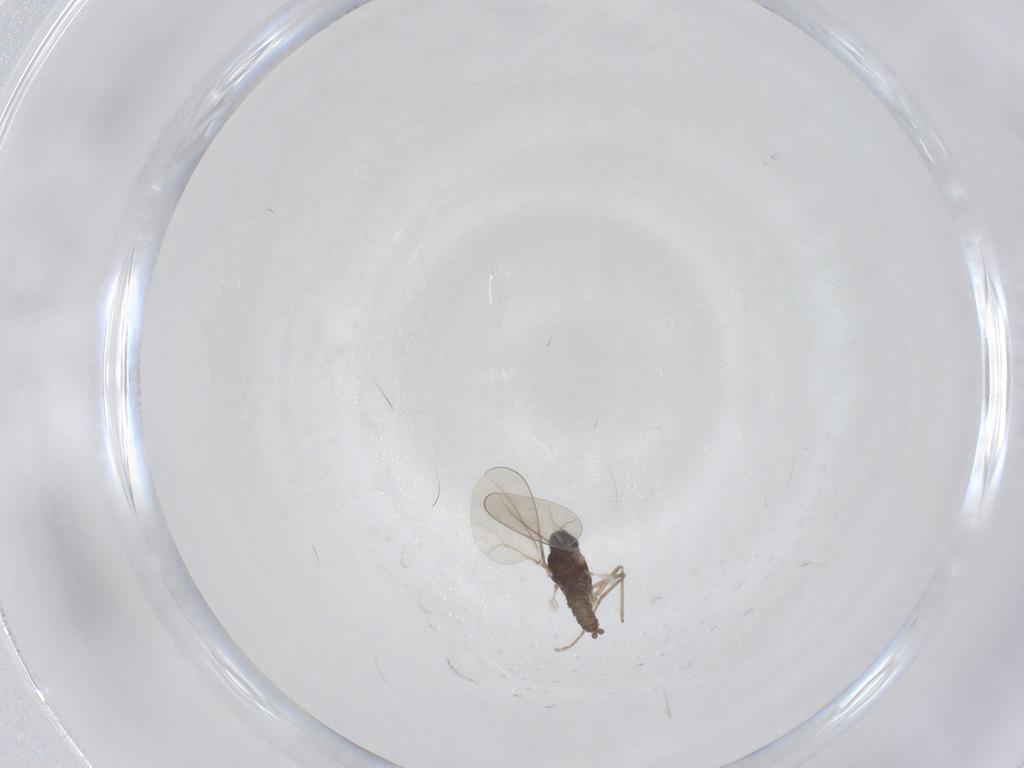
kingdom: Animalia
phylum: Arthropoda
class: Insecta
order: Diptera
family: Cecidomyiidae
